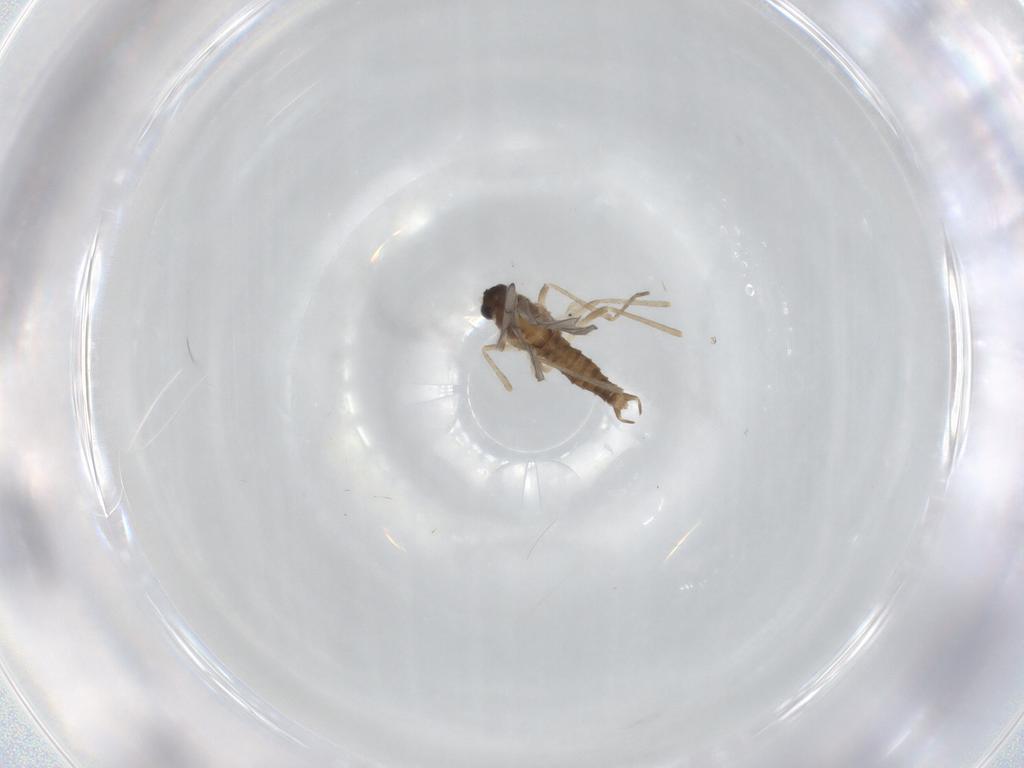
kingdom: Animalia
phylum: Arthropoda
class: Insecta
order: Diptera
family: Cecidomyiidae
